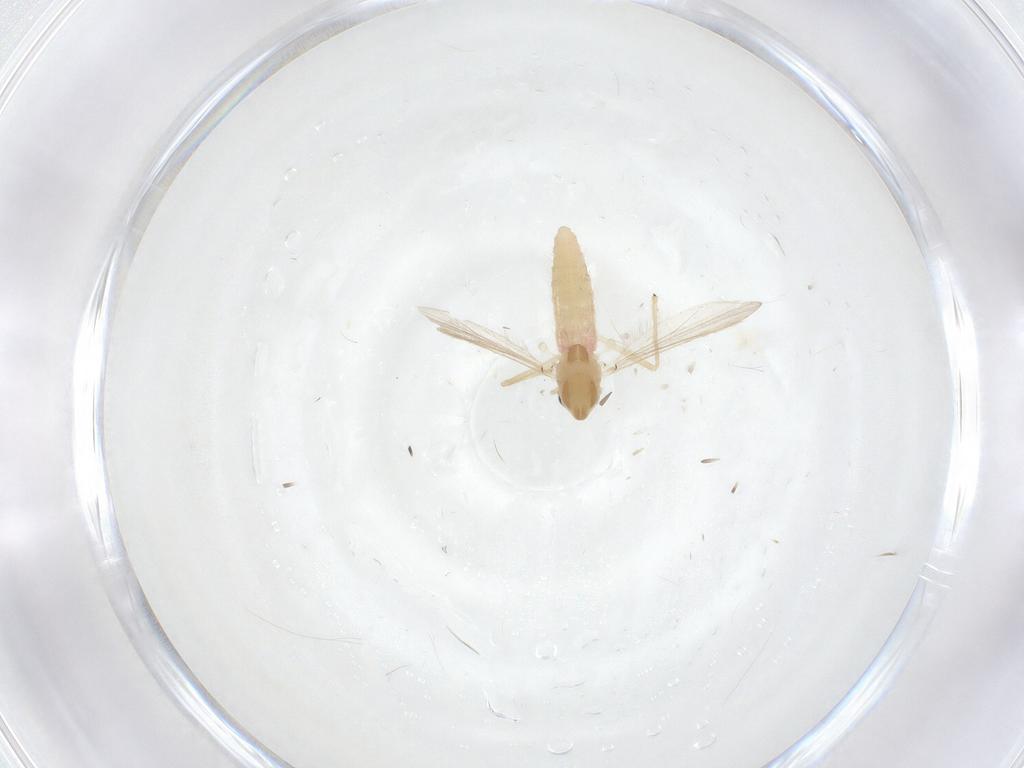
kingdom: Animalia
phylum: Arthropoda
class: Insecta
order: Diptera
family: Chironomidae
